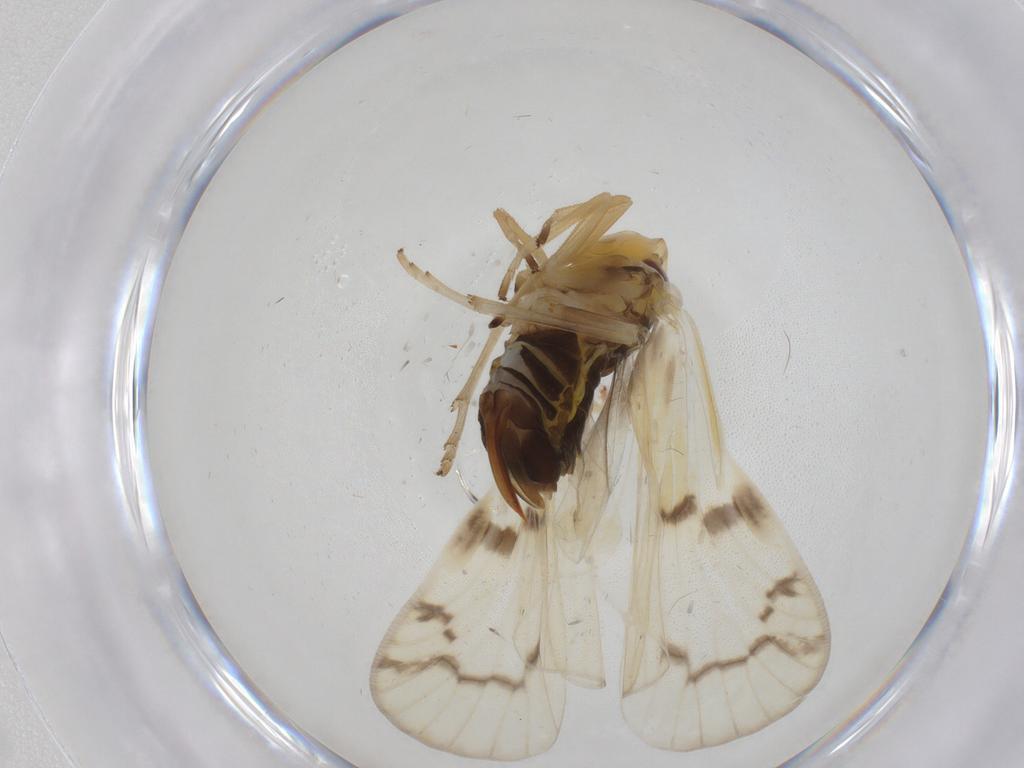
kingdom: Animalia
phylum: Arthropoda
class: Insecta
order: Hemiptera
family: Cixiidae
